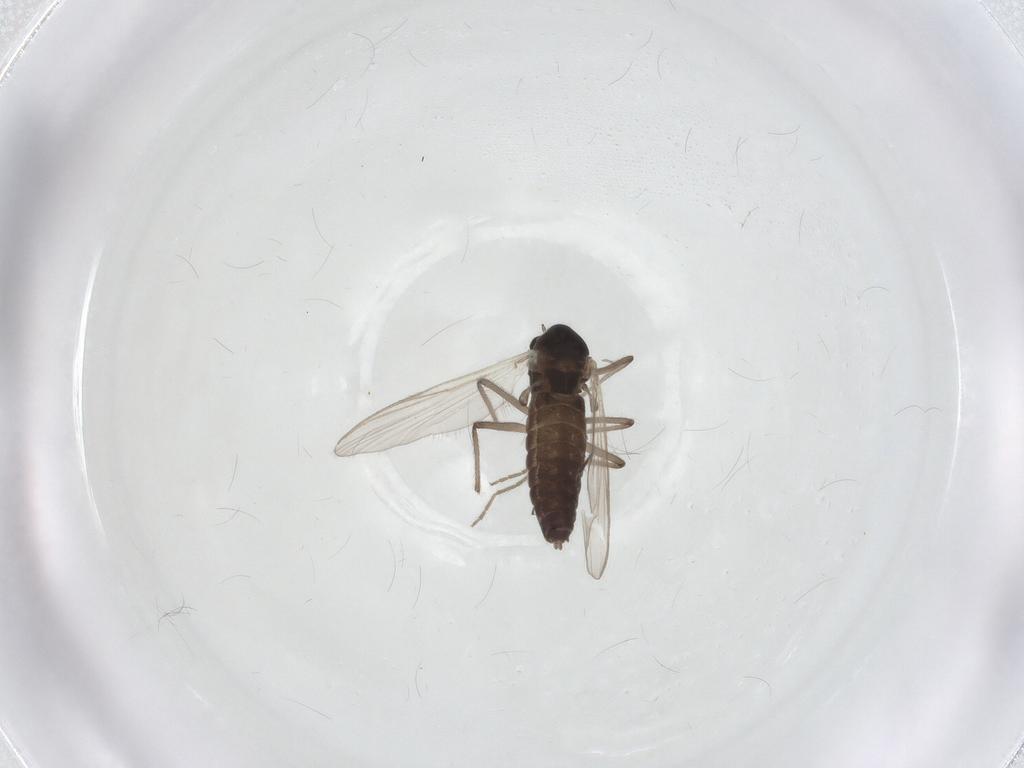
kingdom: Animalia
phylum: Arthropoda
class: Insecta
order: Diptera
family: Chironomidae
